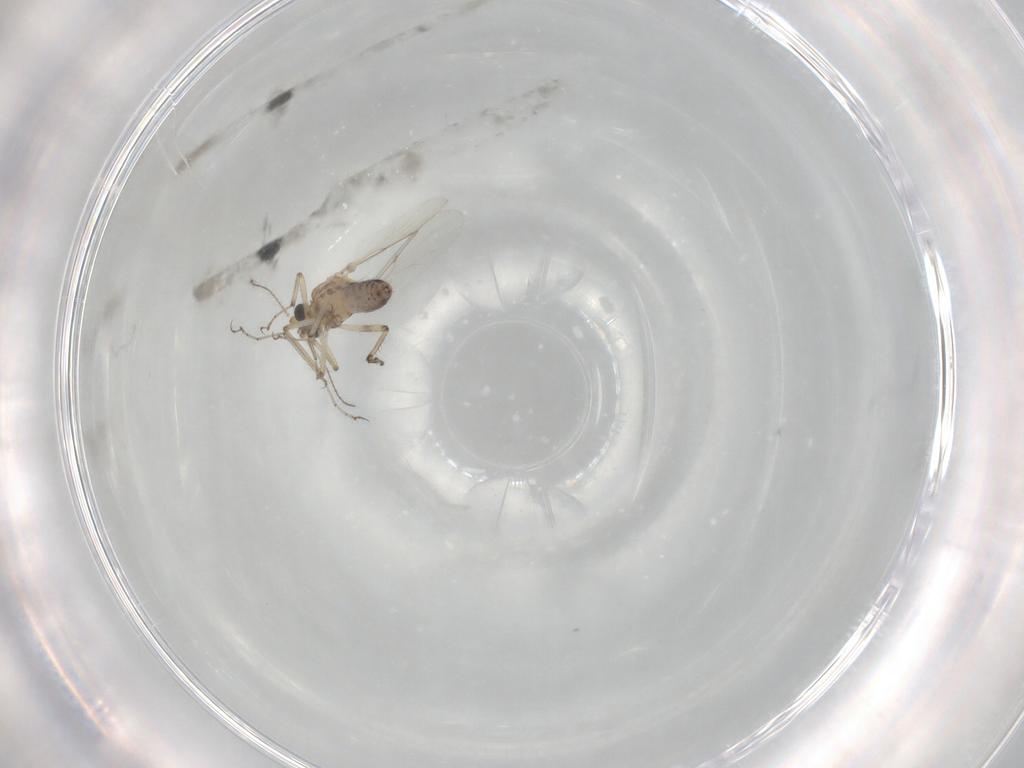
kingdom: Animalia
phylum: Arthropoda
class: Insecta
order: Diptera
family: Ceratopogonidae
